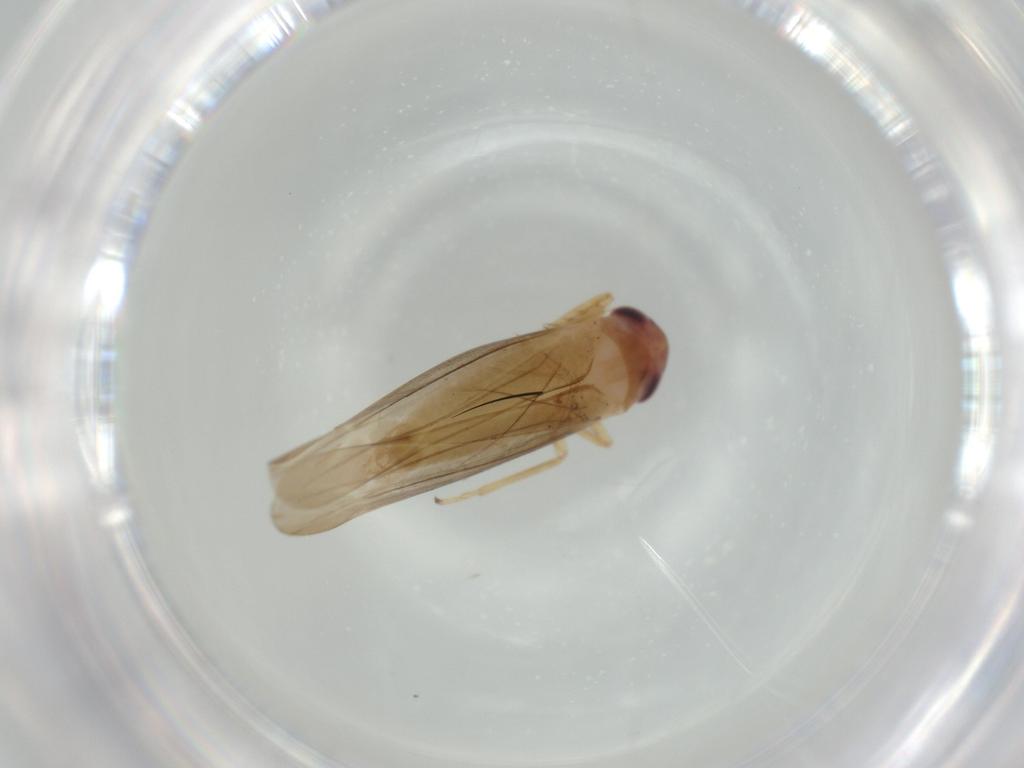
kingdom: Animalia
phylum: Arthropoda
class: Insecta
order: Hemiptera
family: Cicadellidae
